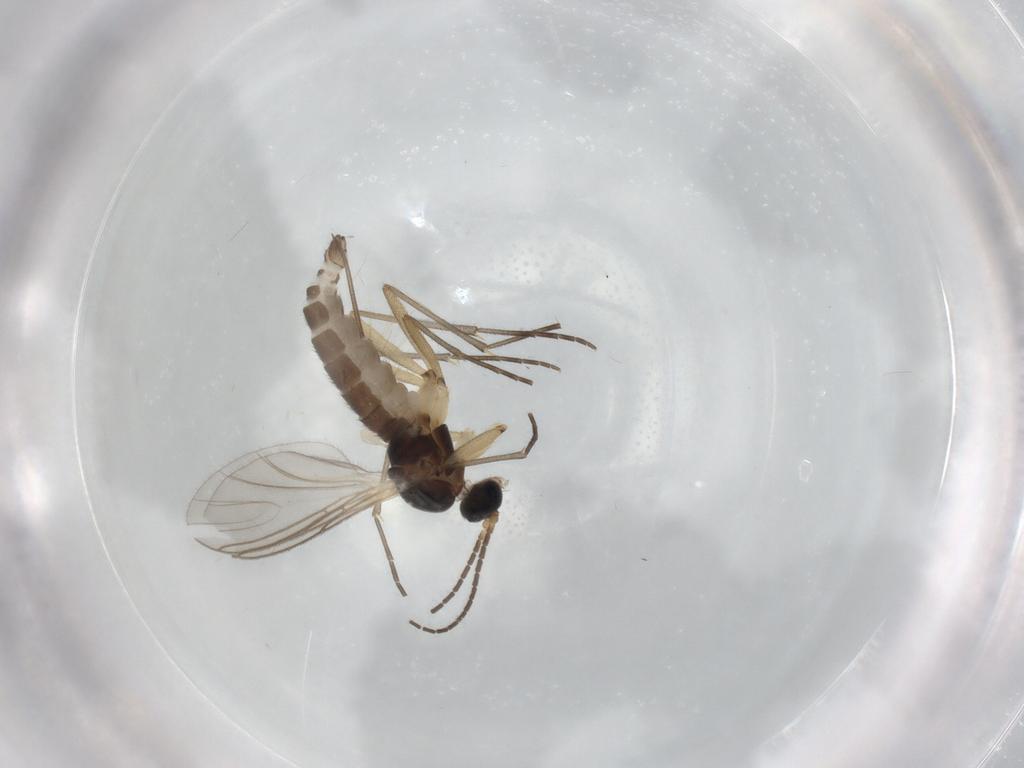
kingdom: Animalia
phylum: Arthropoda
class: Insecta
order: Diptera
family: Sciaridae
